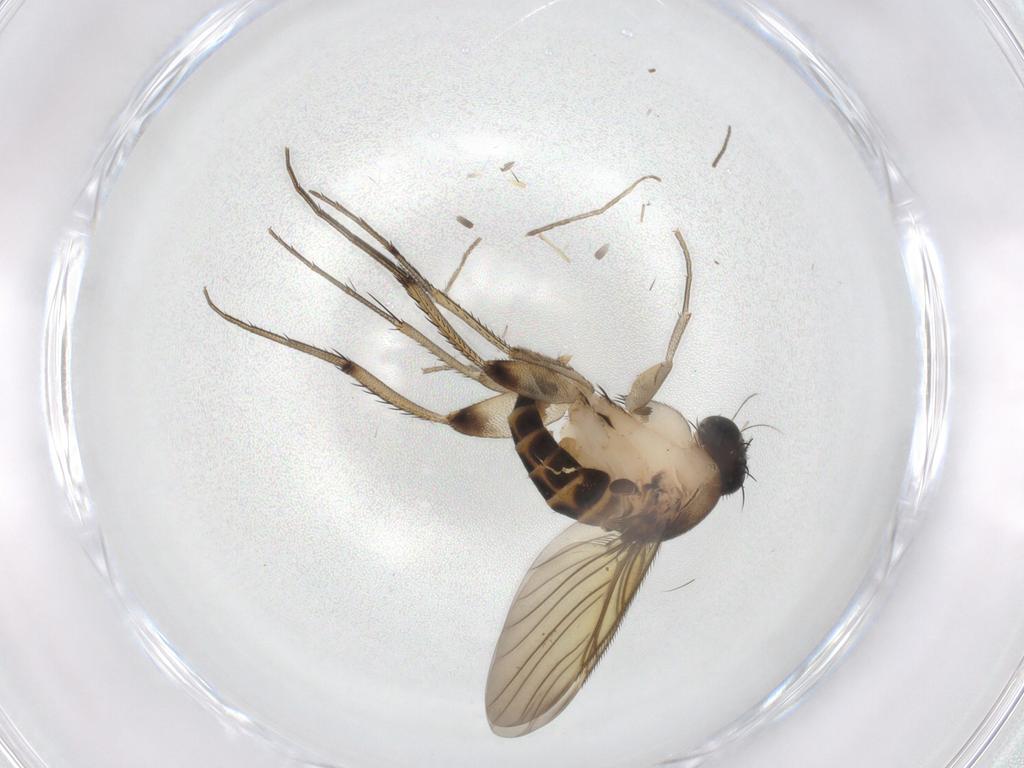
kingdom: Animalia
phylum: Arthropoda
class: Insecta
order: Diptera
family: Phoridae
